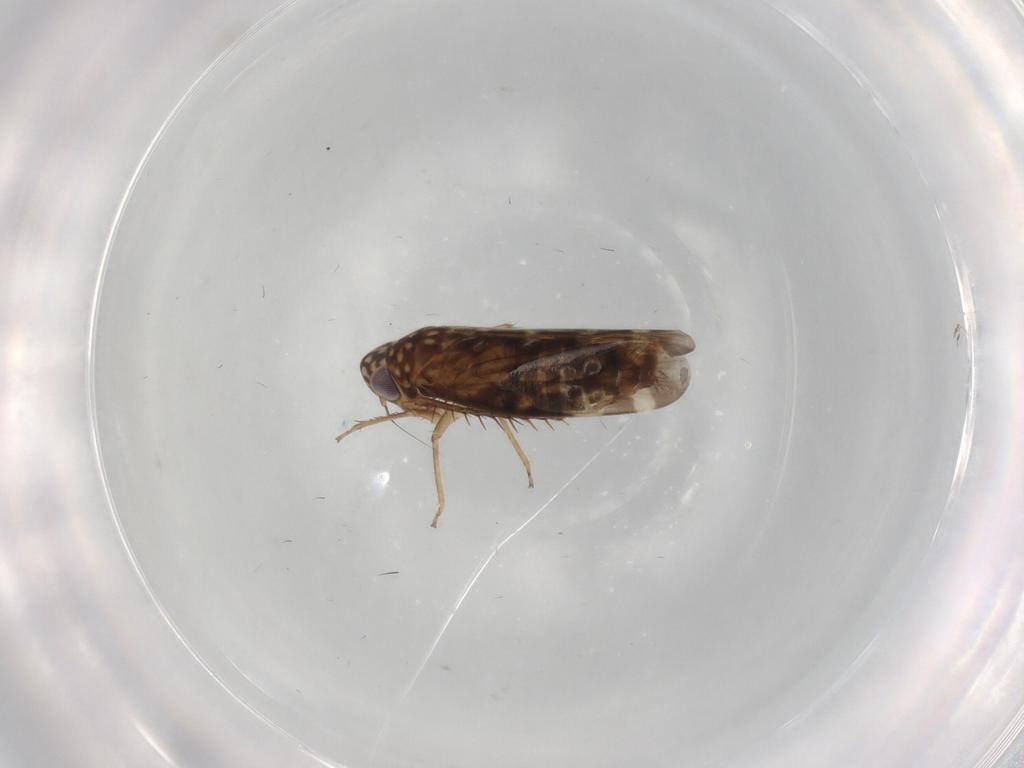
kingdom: Animalia
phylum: Arthropoda
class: Insecta
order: Hemiptera
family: Cicadellidae
